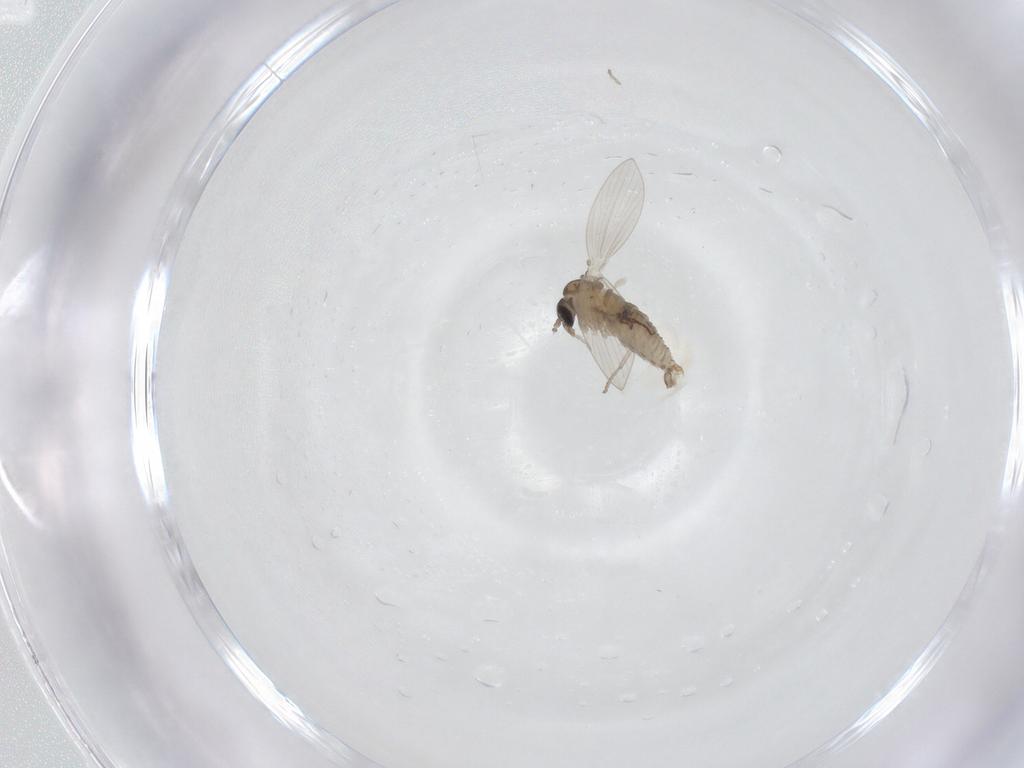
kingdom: Animalia
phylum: Arthropoda
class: Insecta
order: Diptera
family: Psychodidae
